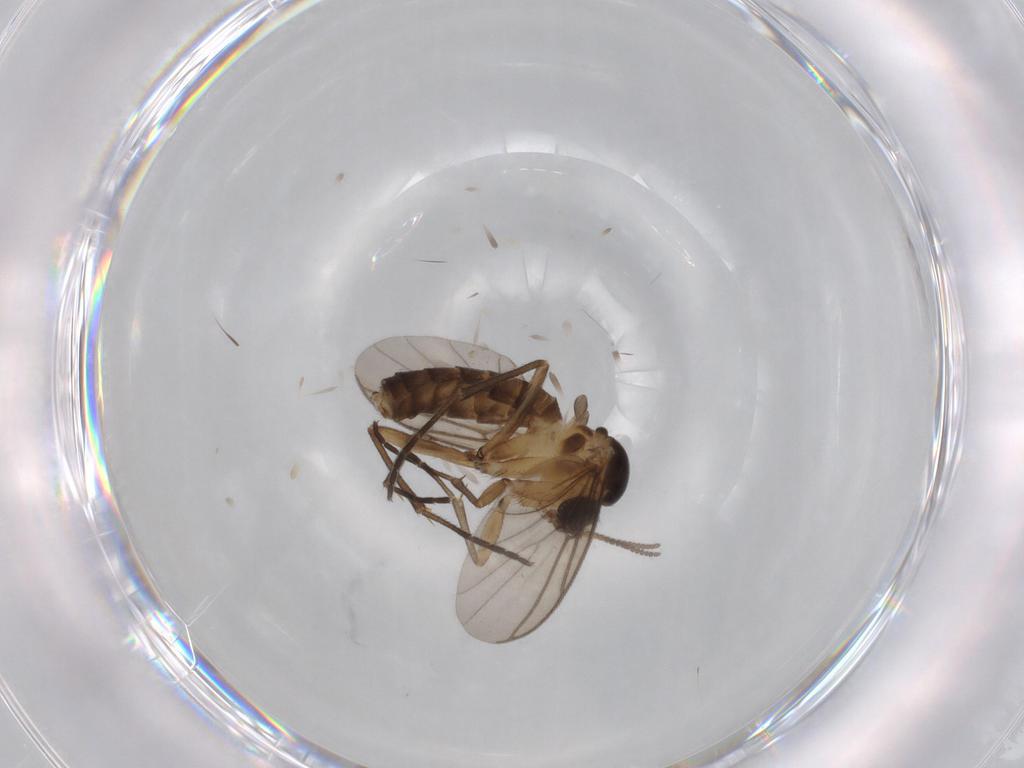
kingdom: Animalia
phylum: Arthropoda
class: Insecta
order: Diptera
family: Mycetophilidae
